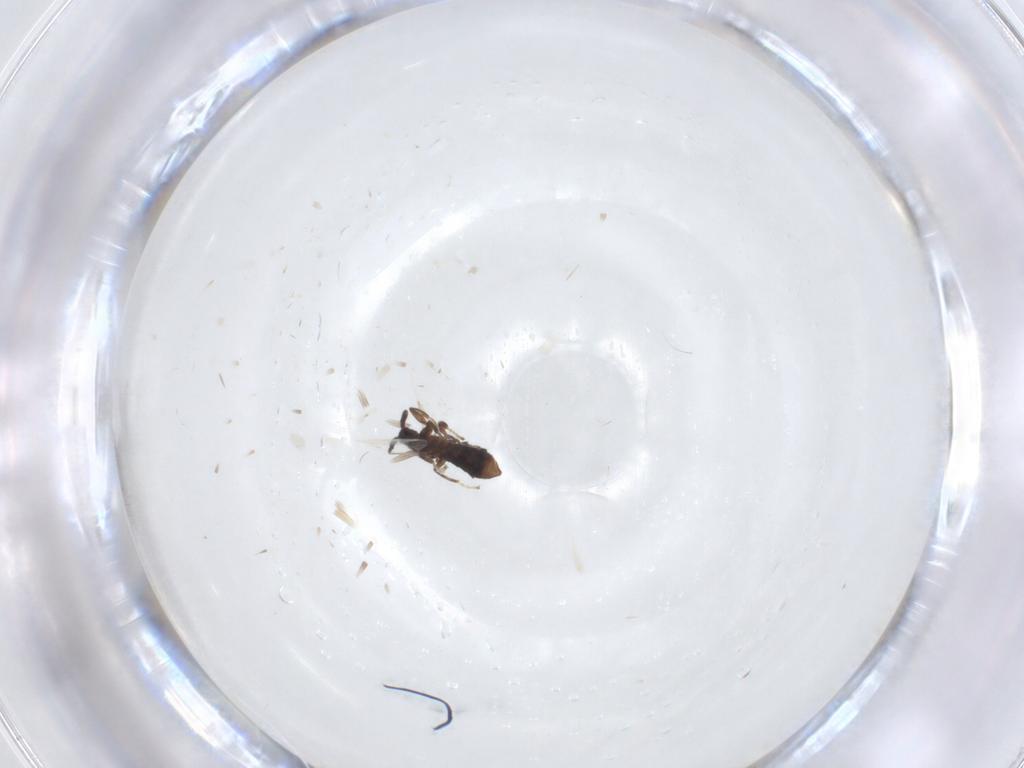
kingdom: Animalia
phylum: Arthropoda
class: Insecta
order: Diptera
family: Scatopsidae
